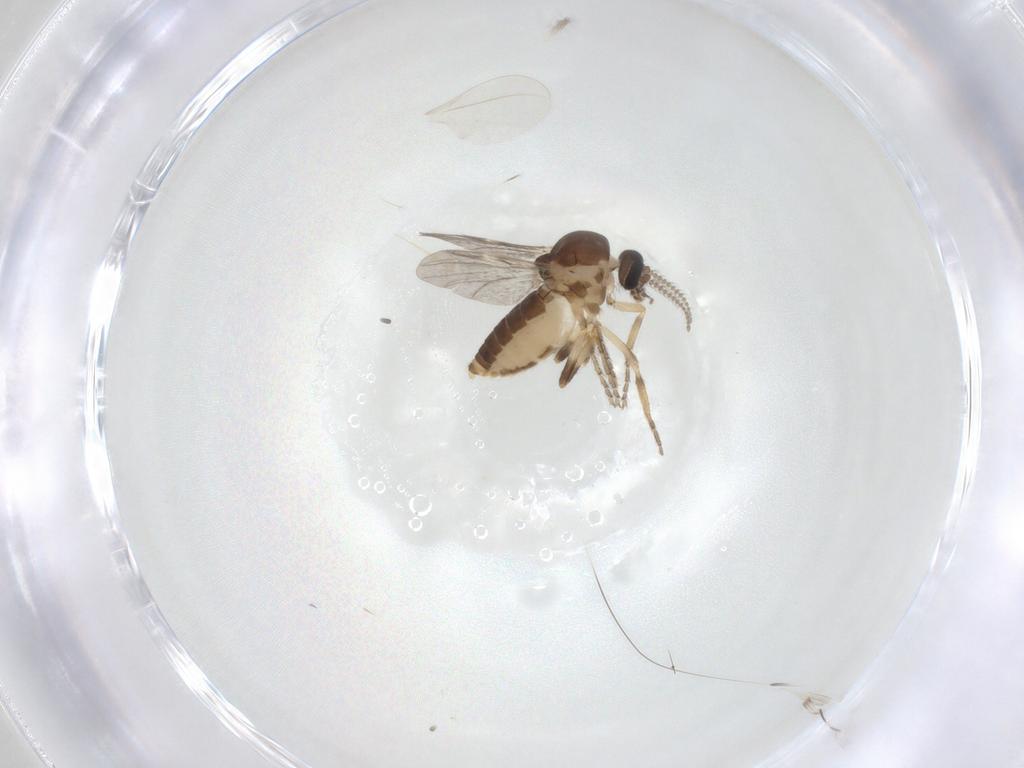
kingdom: Animalia
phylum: Arthropoda
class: Insecta
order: Diptera
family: Ceratopogonidae
